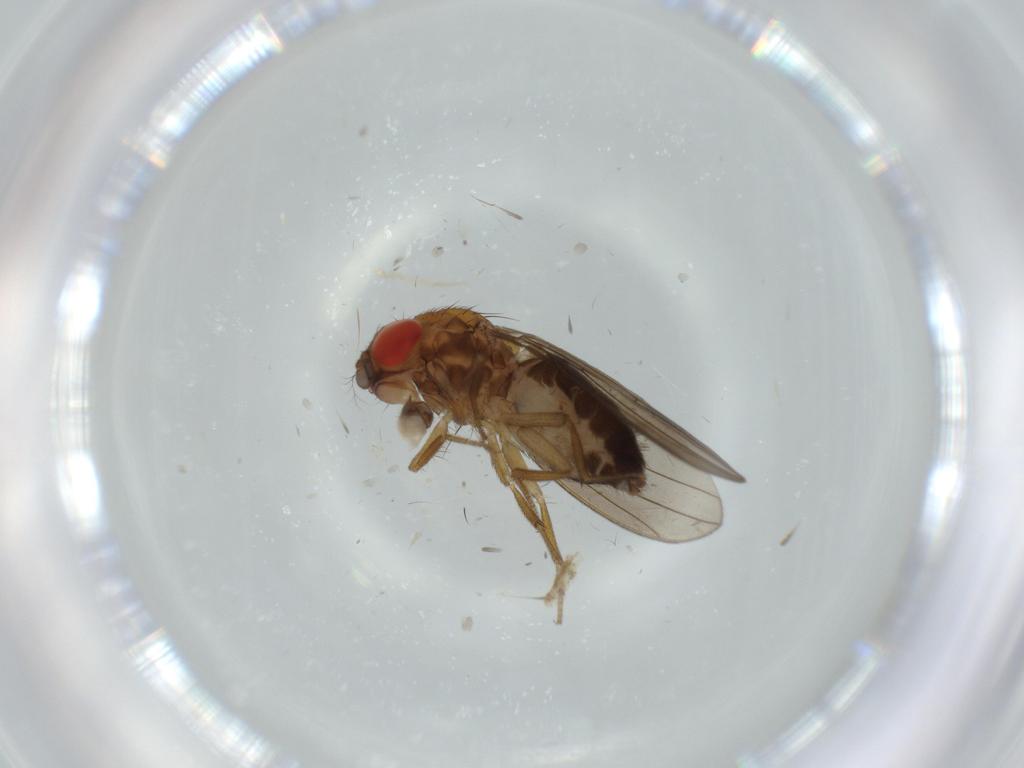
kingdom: Animalia
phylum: Arthropoda
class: Insecta
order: Diptera
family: Drosophilidae
